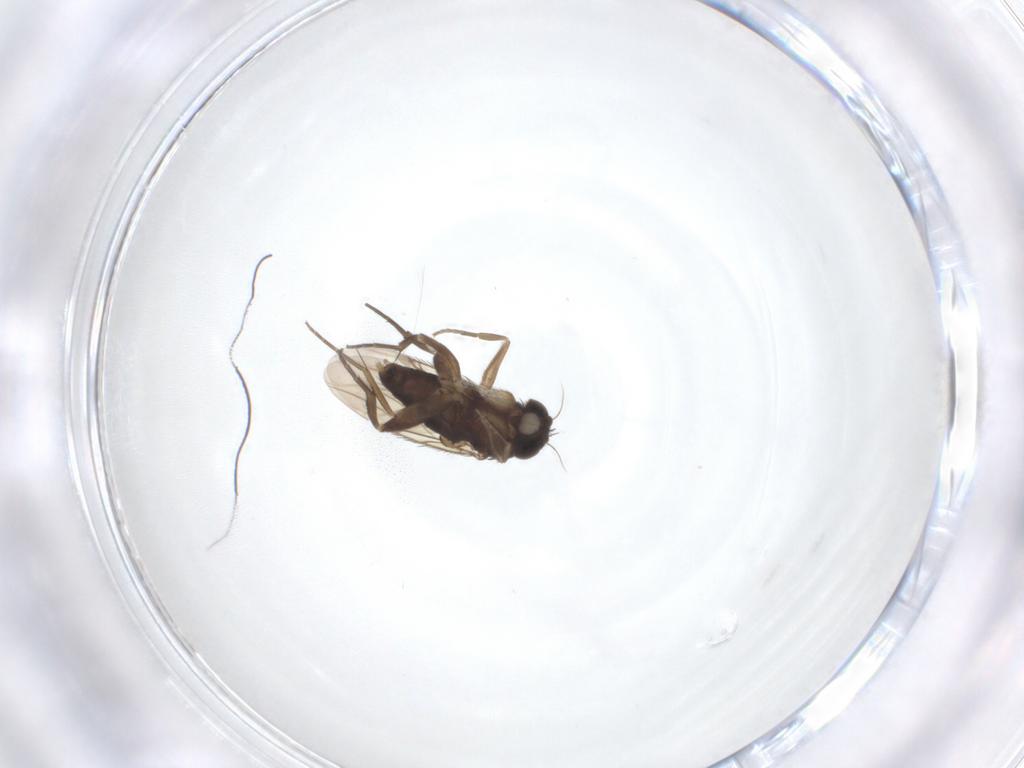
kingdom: Animalia
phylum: Arthropoda
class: Insecta
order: Diptera
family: Phoridae
